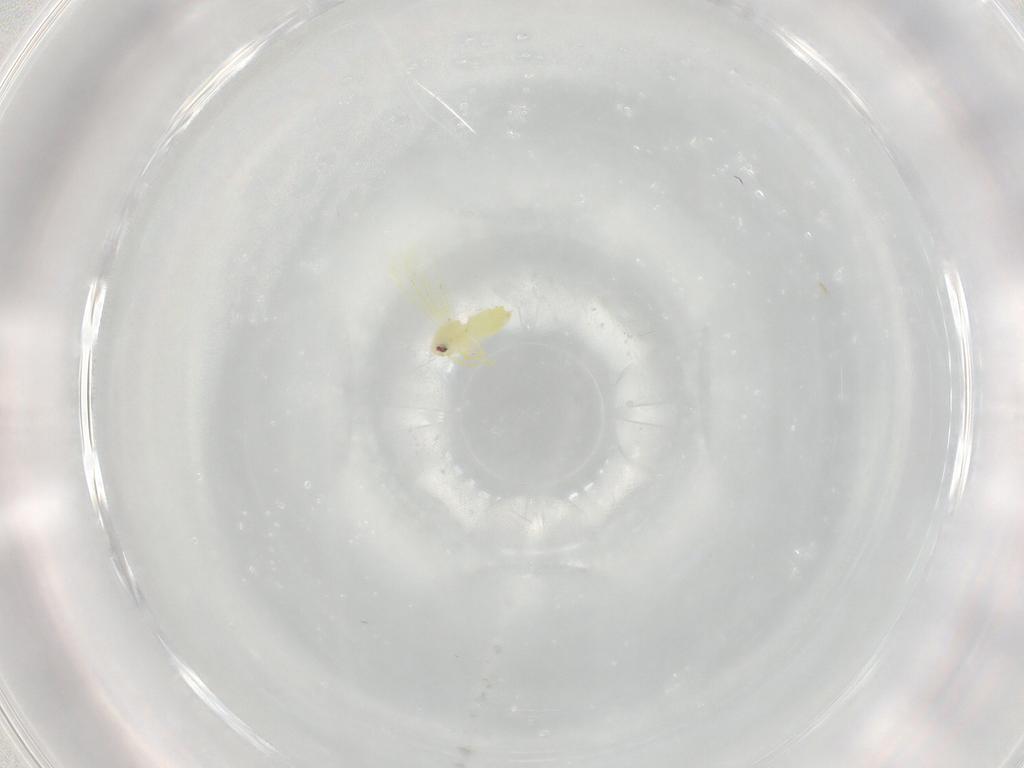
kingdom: Animalia
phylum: Arthropoda
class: Insecta
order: Hemiptera
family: Aleyrodidae
